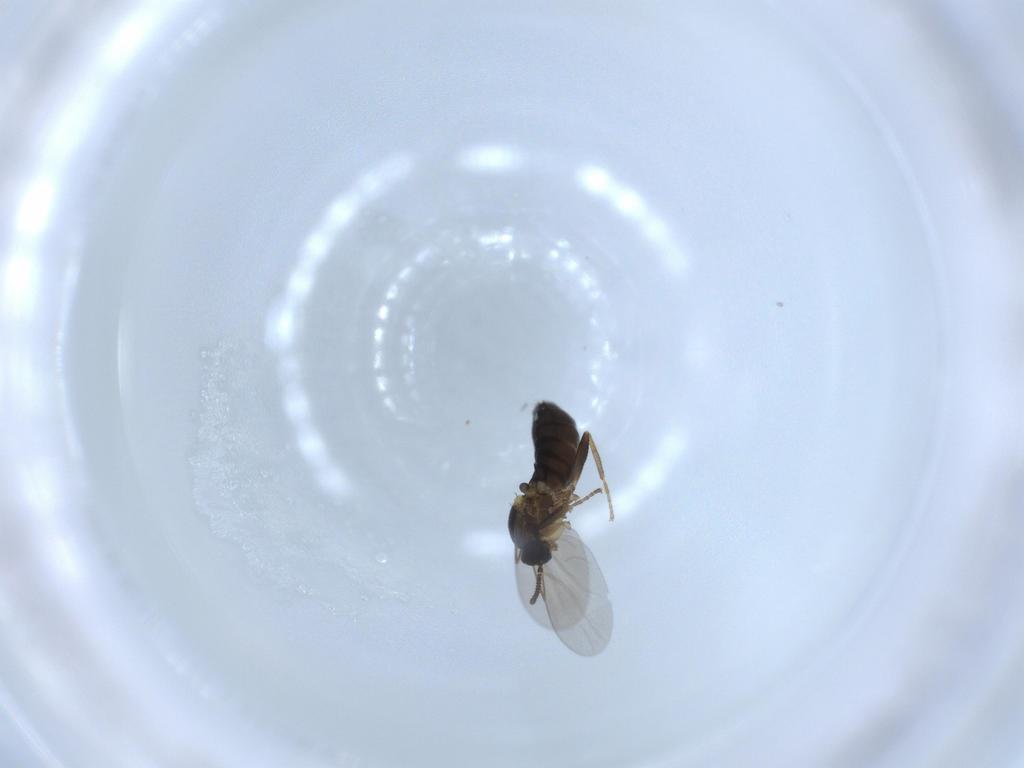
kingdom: Animalia
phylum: Arthropoda
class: Insecta
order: Diptera
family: Scatopsidae
